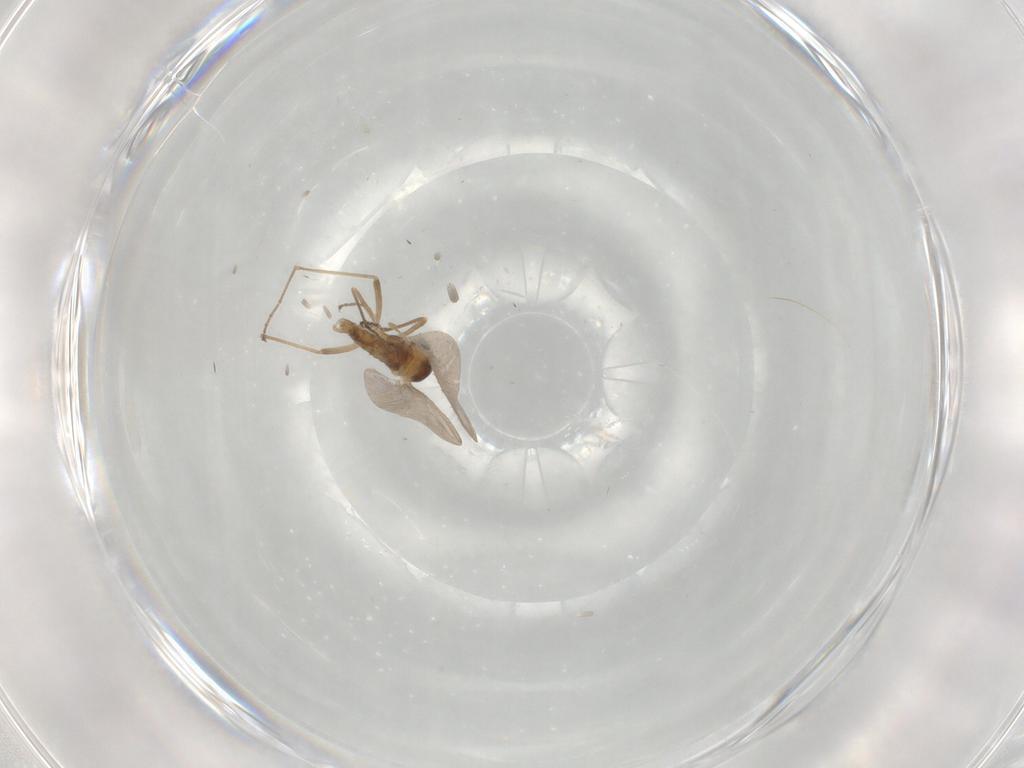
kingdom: Animalia
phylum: Arthropoda
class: Insecta
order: Diptera
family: Cecidomyiidae
